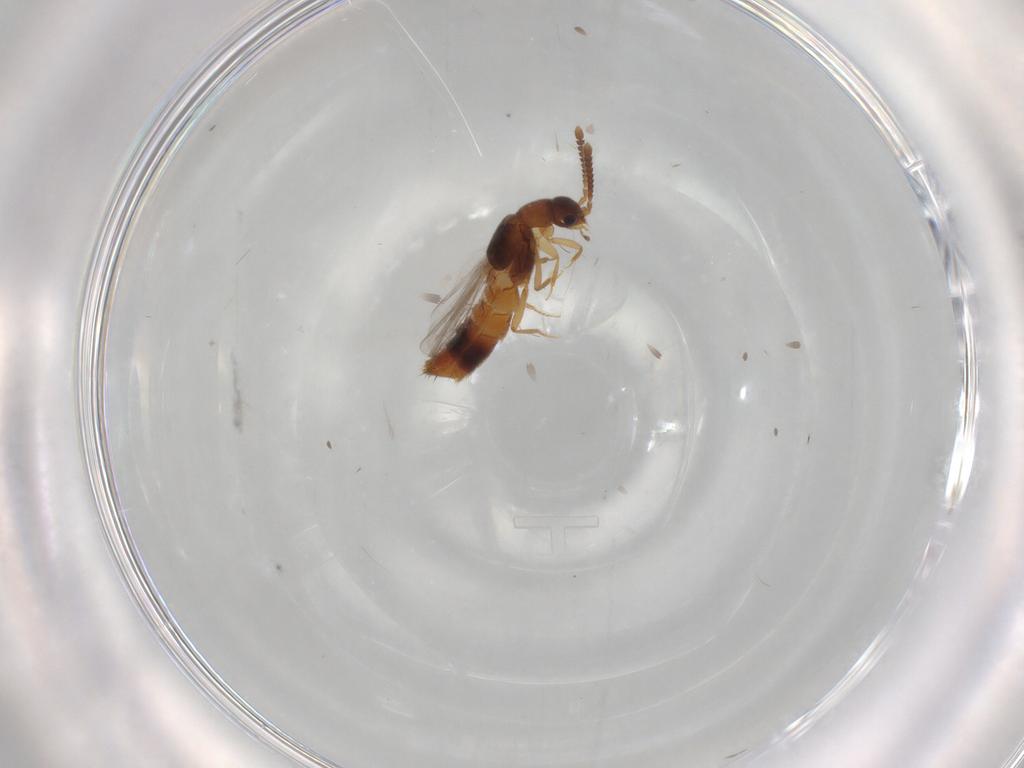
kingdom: Animalia
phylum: Arthropoda
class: Insecta
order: Coleoptera
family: Staphylinidae
